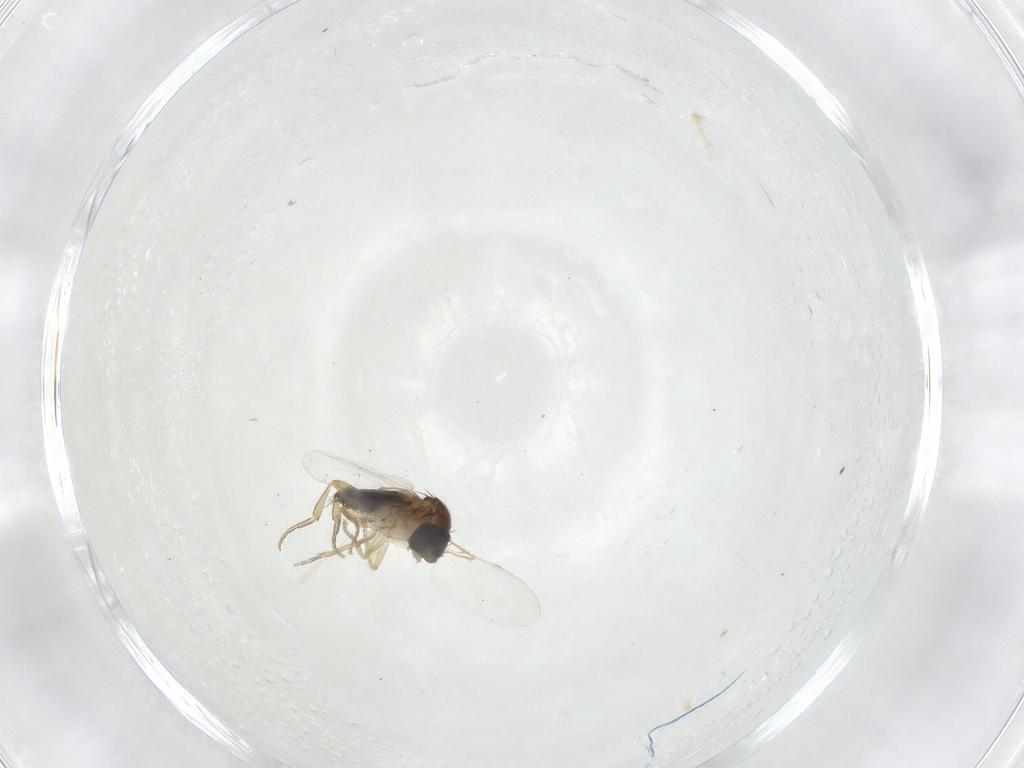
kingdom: Animalia
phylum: Arthropoda
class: Insecta
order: Diptera
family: Phoridae
